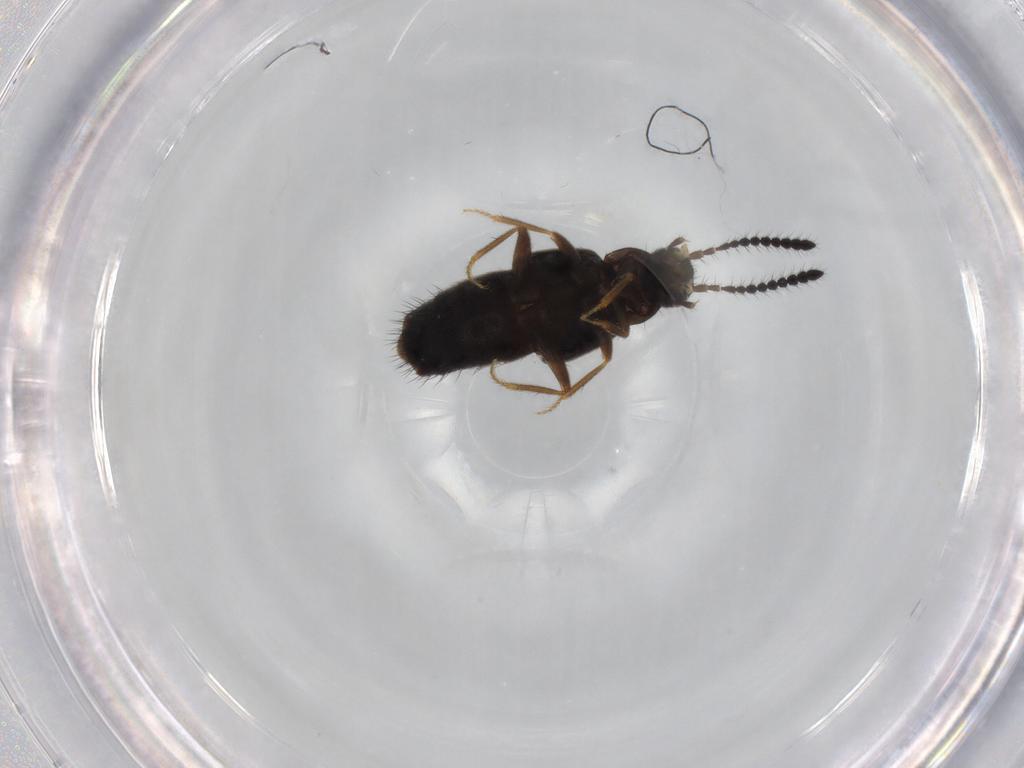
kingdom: Animalia
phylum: Arthropoda
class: Insecta
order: Coleoptera
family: Staphylinidae
